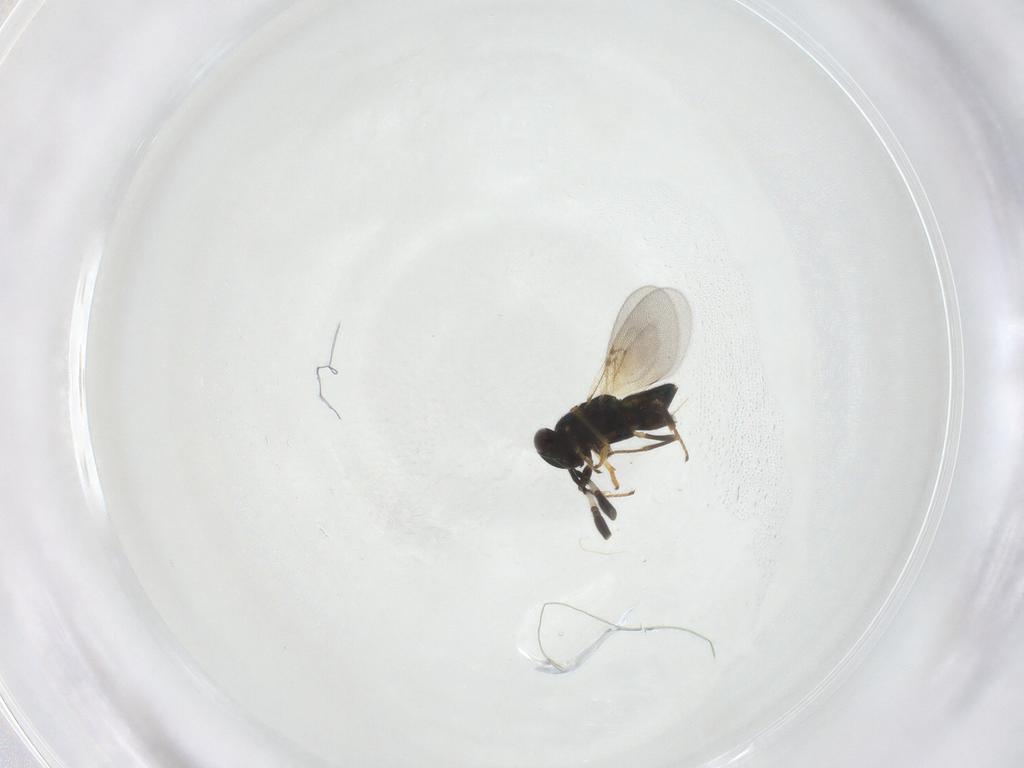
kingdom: Animalia
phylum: Arthropoda
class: Insecta
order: Hymenoptera
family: Encyrtidae
